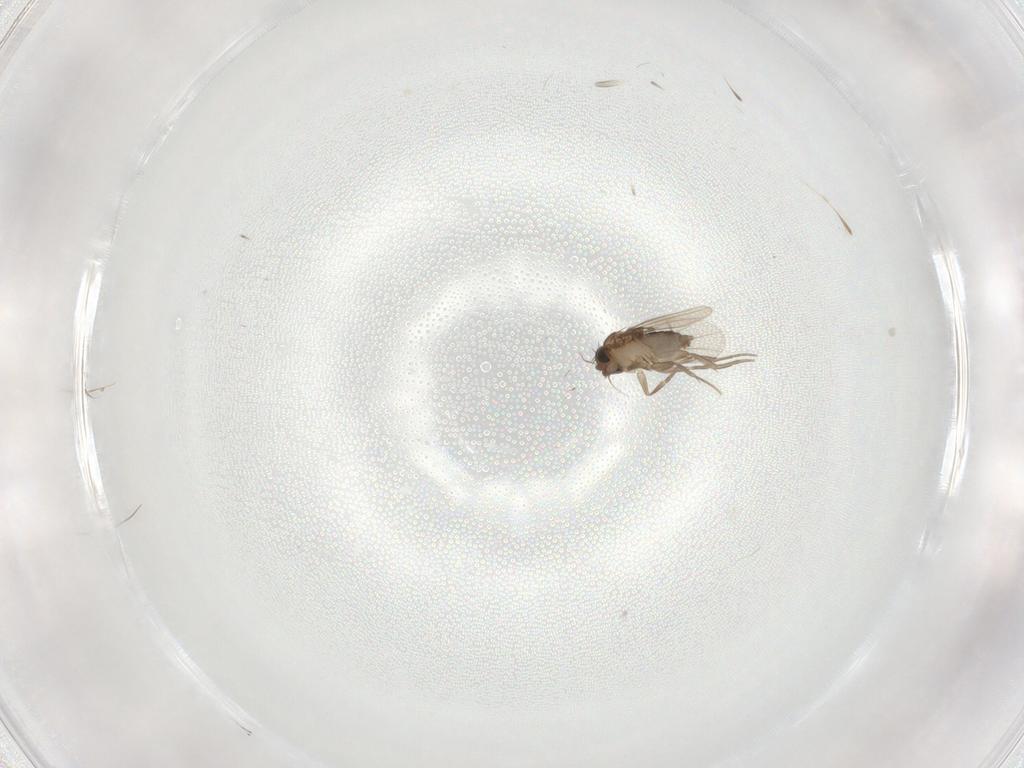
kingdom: Animalia
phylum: Arthropoda
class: Insecta
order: Diptera
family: Phoridae
